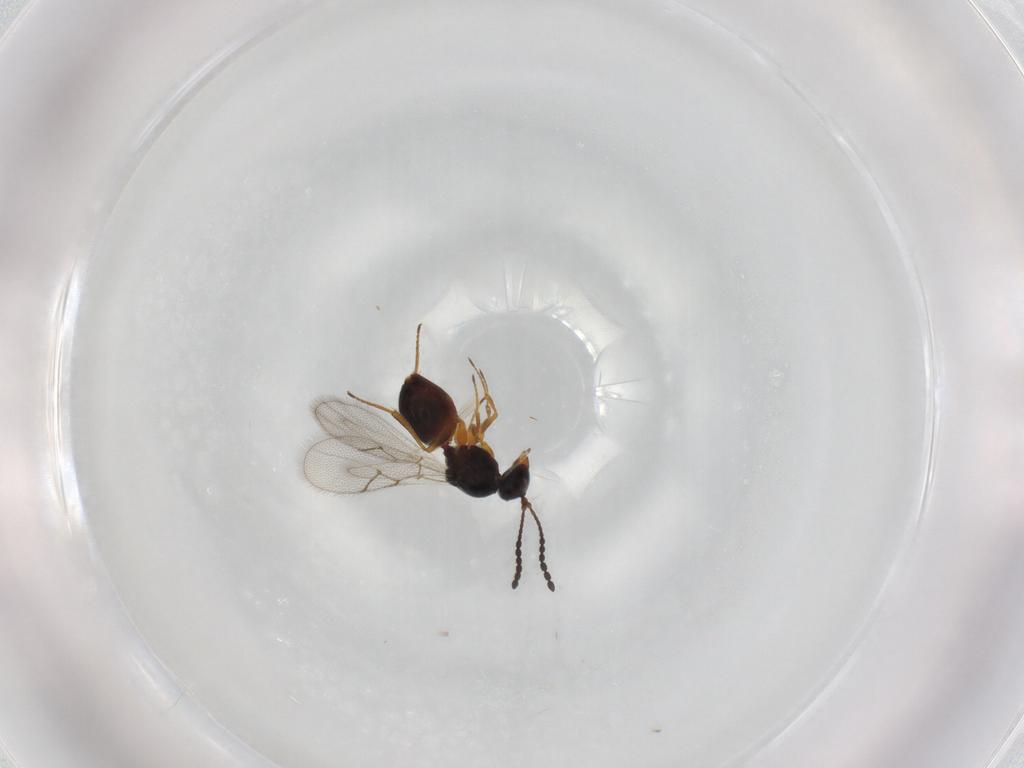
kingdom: Animalia
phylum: Arthropoda
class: Insecta
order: Hymenoptera
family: Figitidae
